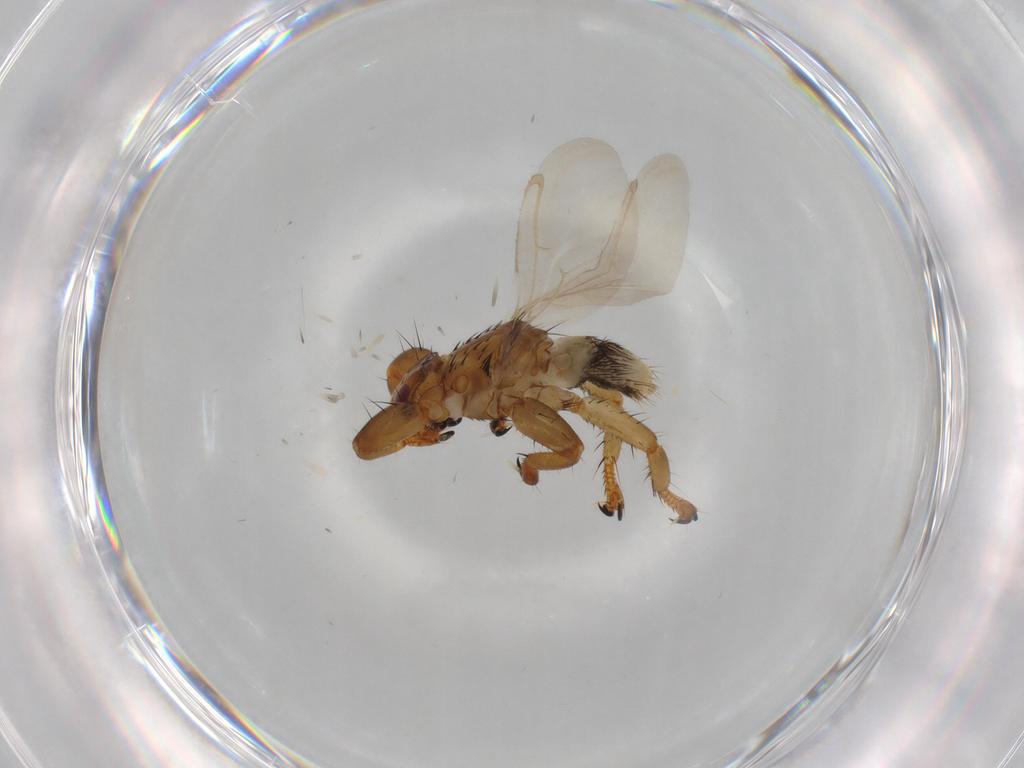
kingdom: Animalia
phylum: Arthropoda
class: Insecta
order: Diptera
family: Hippoboscidae
